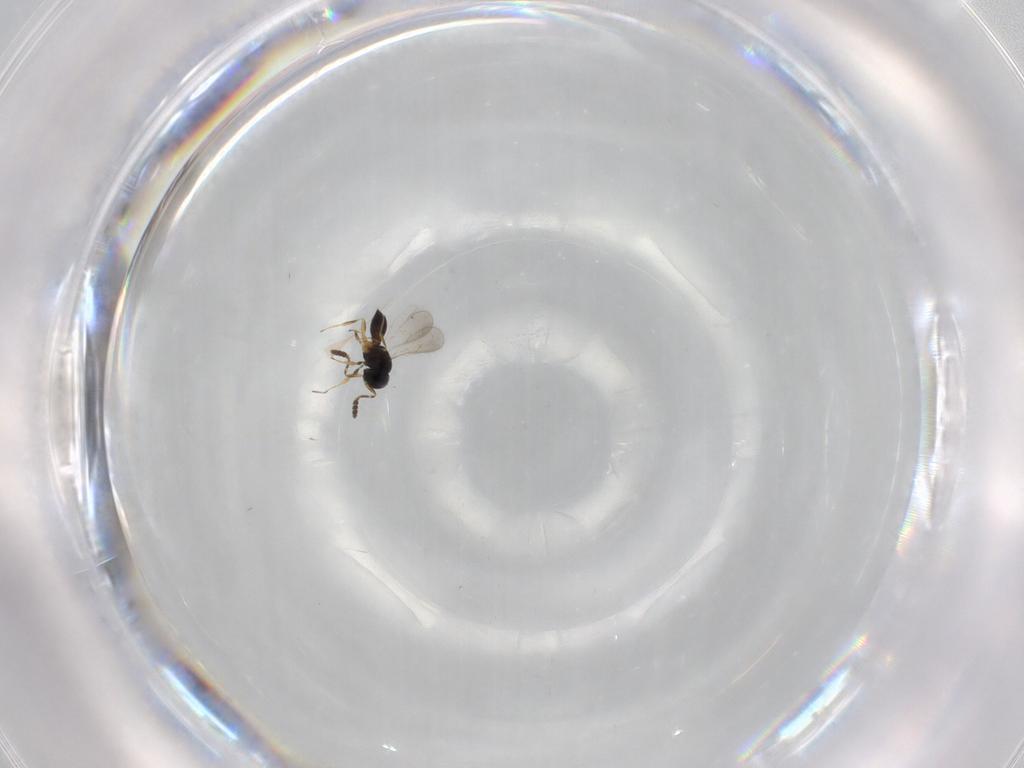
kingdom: Animalia
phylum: Arthropoda
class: Insecta
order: Hymenoptera
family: Scelionidae
